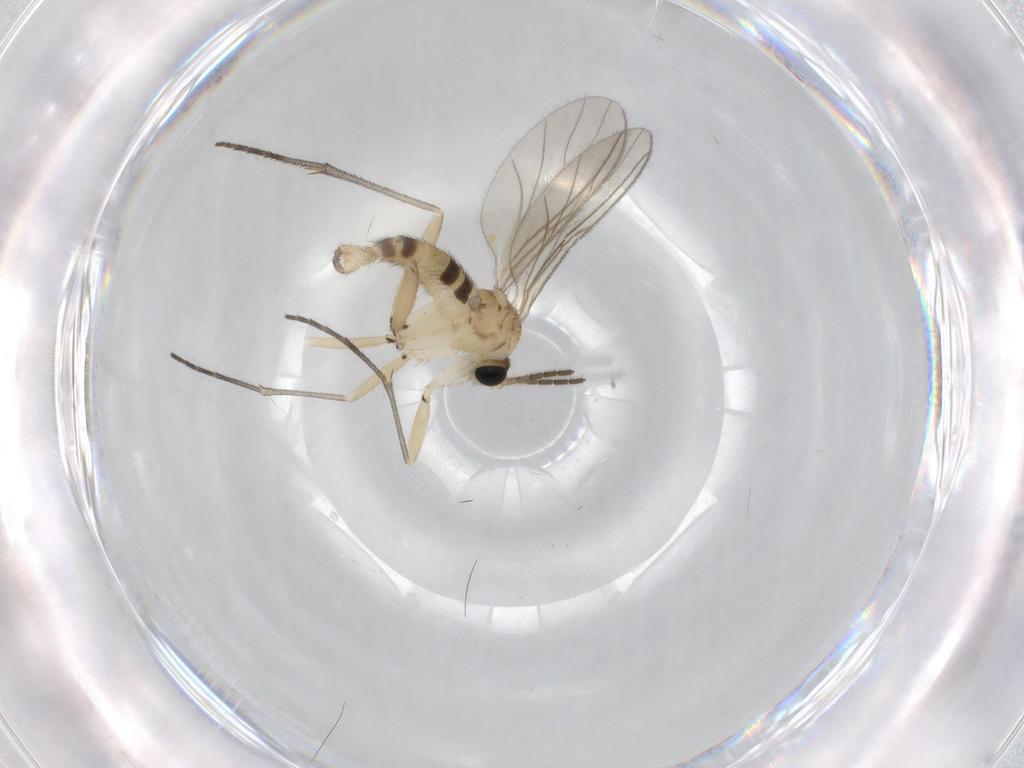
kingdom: Animalia
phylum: Arthropoda
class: Insecta
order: Diptera
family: Sciaridae
